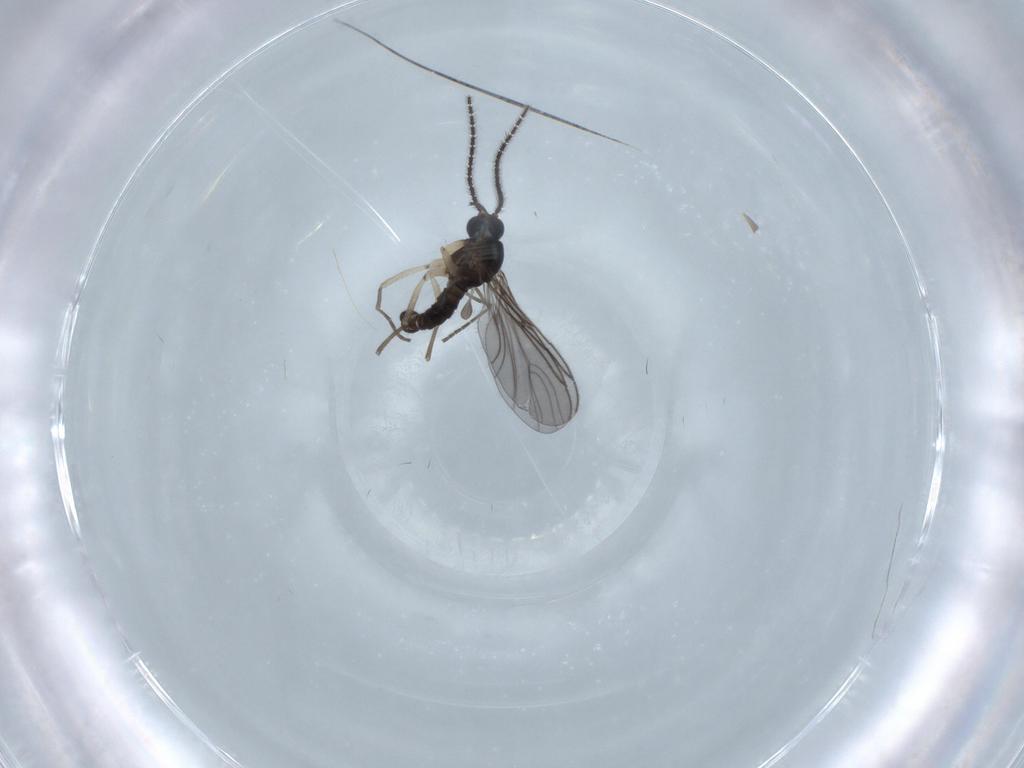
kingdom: Animalia
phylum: Arthropoda
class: Insecta
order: Diptera
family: Sciaridae
